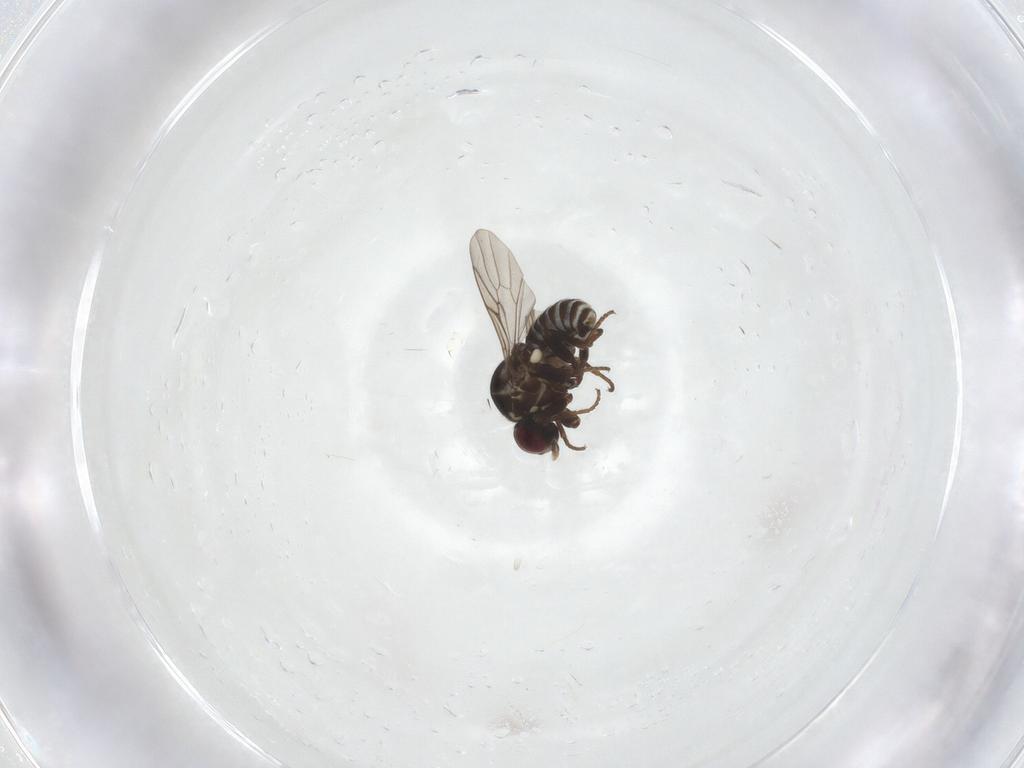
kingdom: Animalia
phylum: Arthropoda
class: Insecta
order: Diptera
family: Mythicomyiidae
